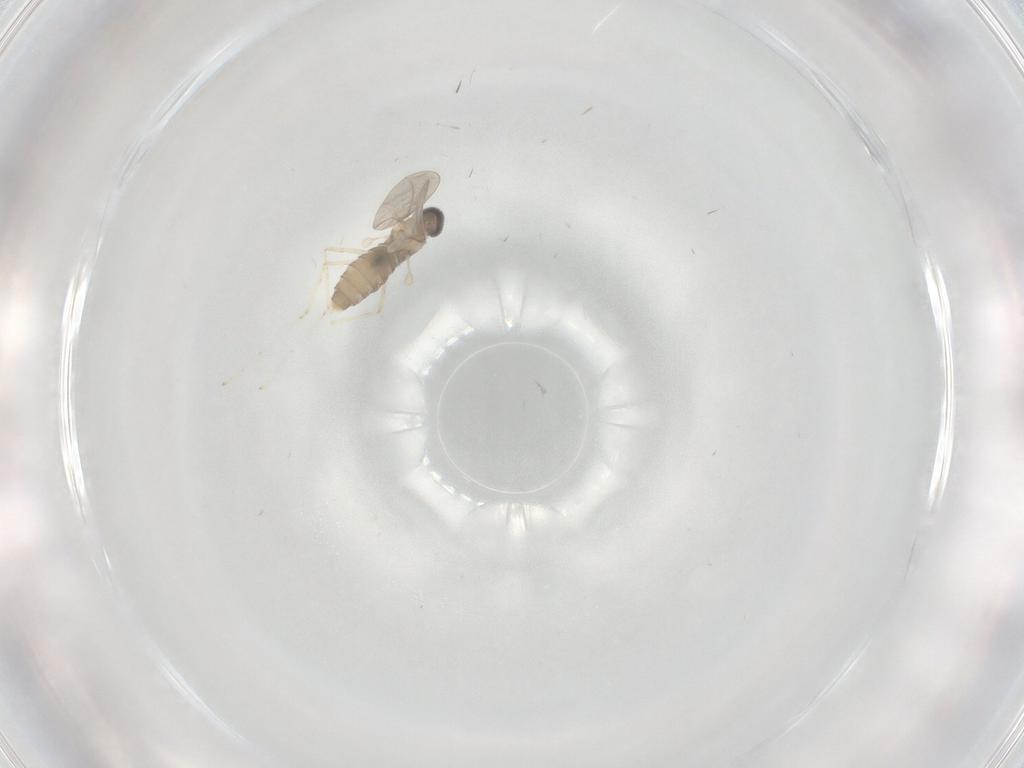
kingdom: Animalia
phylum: Arthropoda
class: Insecta
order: Diptera
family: Cecidomyiidae
